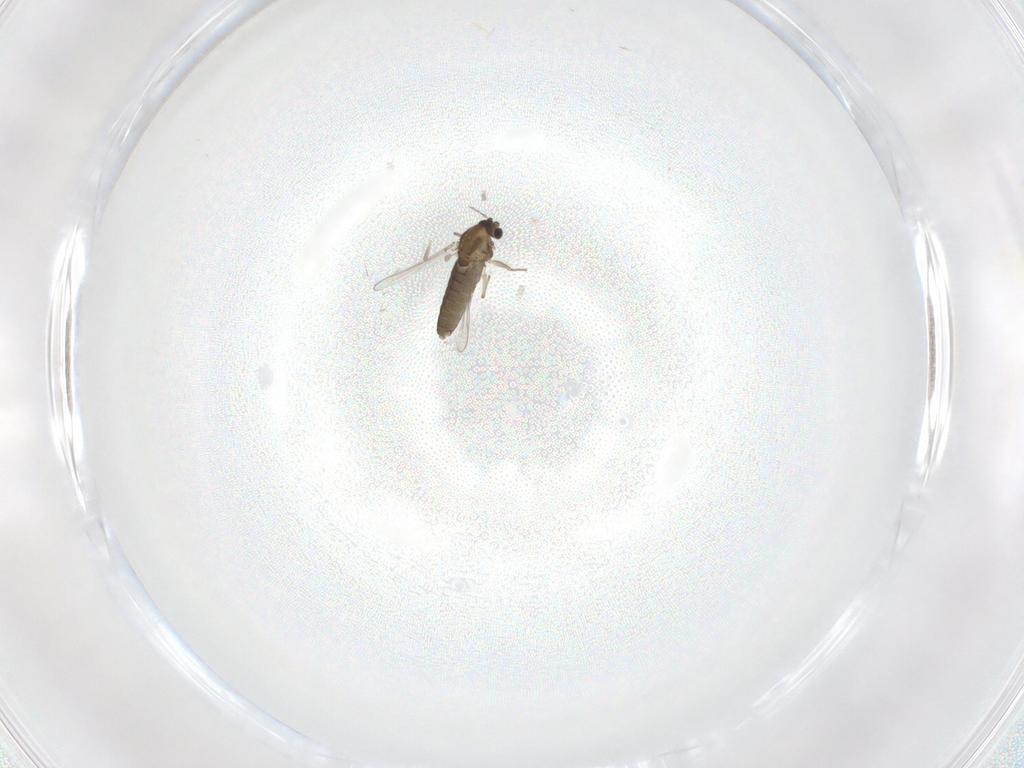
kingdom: Animalia
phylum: Arthropoda
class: Insecta
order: Diptera
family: Chironomidae
